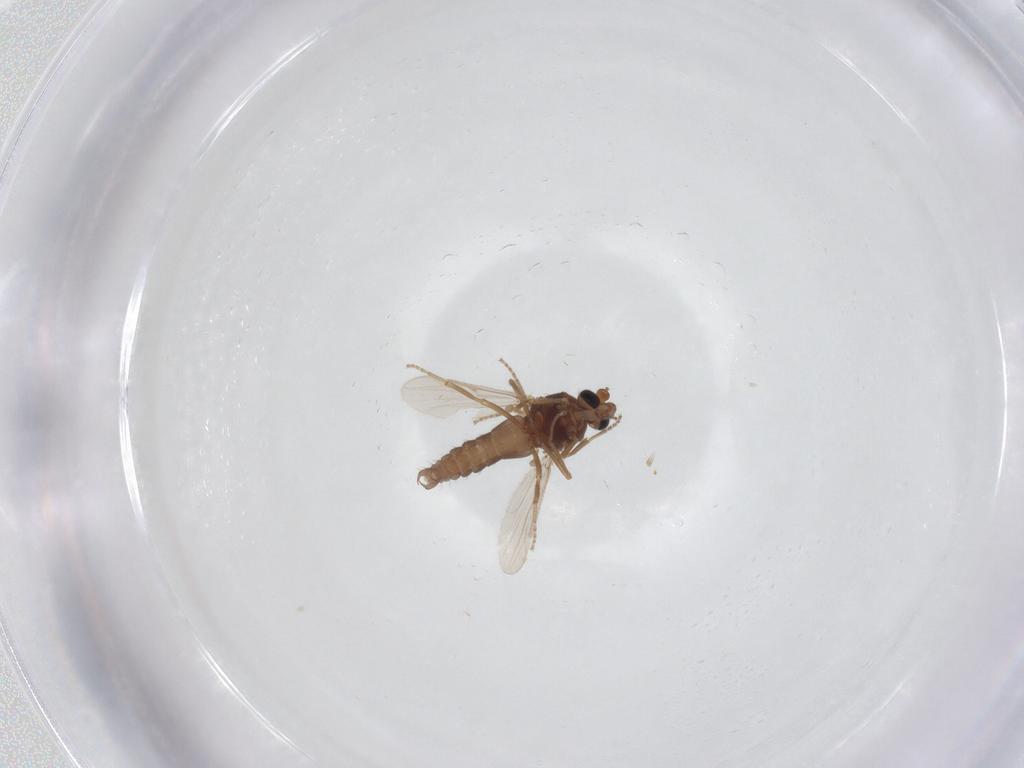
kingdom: Animalia
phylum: Arthropoda
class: Insecta
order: Diptera
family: Ceratopogonidae
